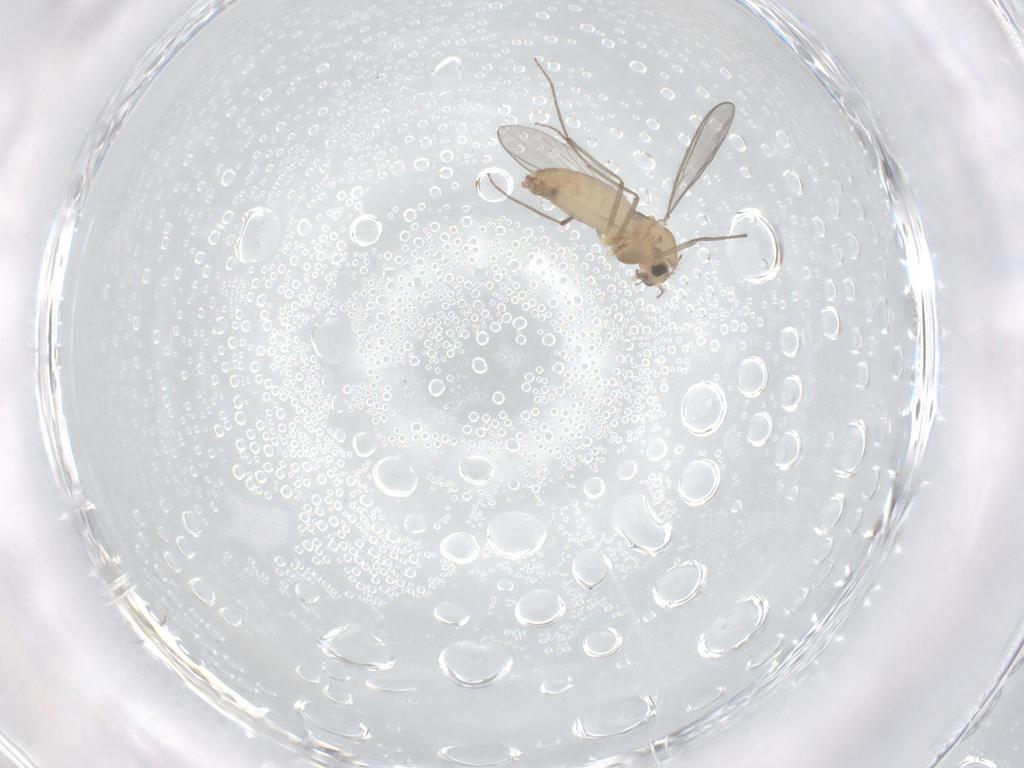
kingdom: Animalia
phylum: Arthropoda
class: Insecta
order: Diptera
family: Chironomidae
